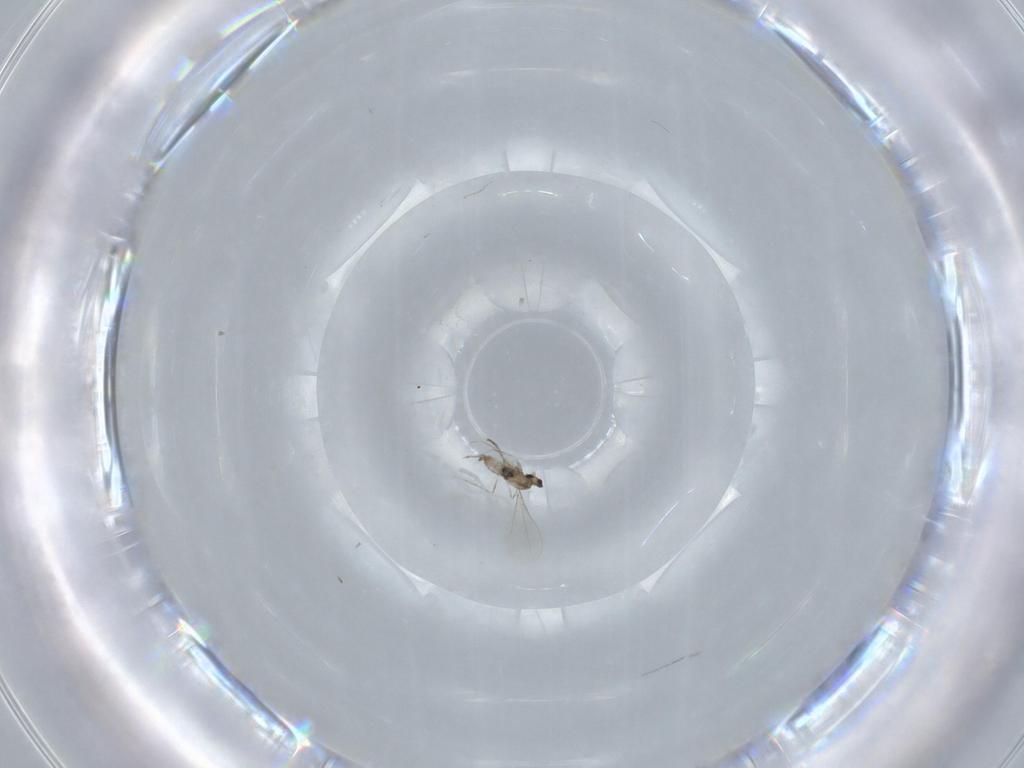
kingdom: Animalia
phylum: Arthropoda
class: Insecta
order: Diptera
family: Cecidomyiidae
